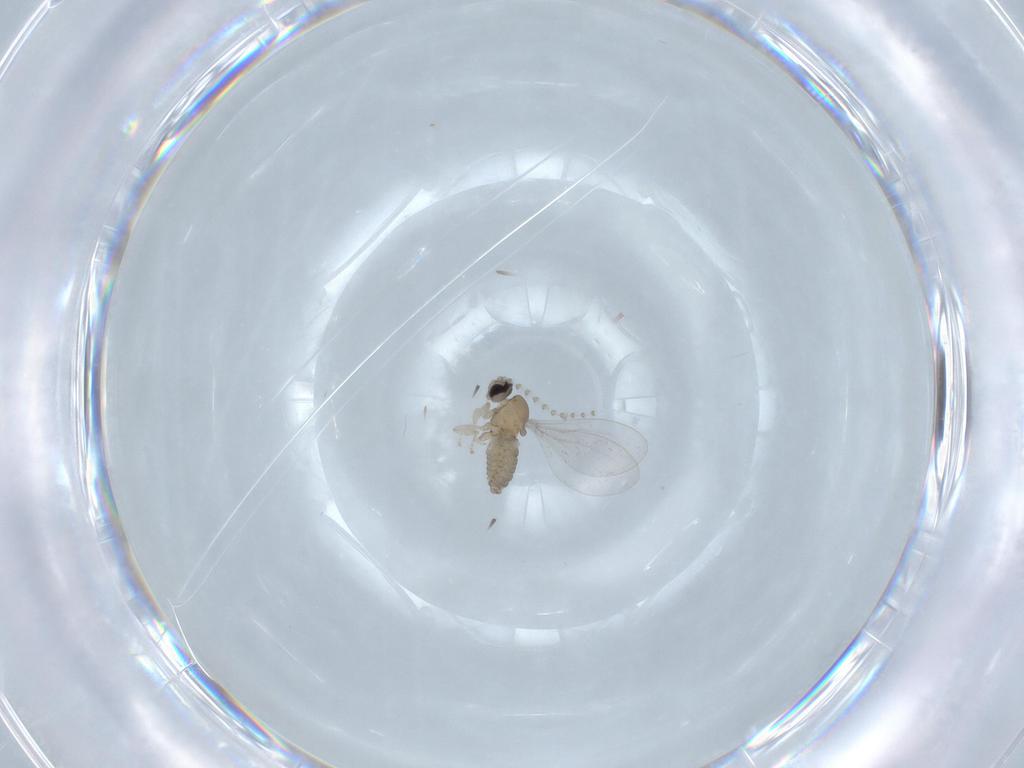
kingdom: Animalia
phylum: Arthropoda
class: Insecta
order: Diptera
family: Cecidomyiidae
